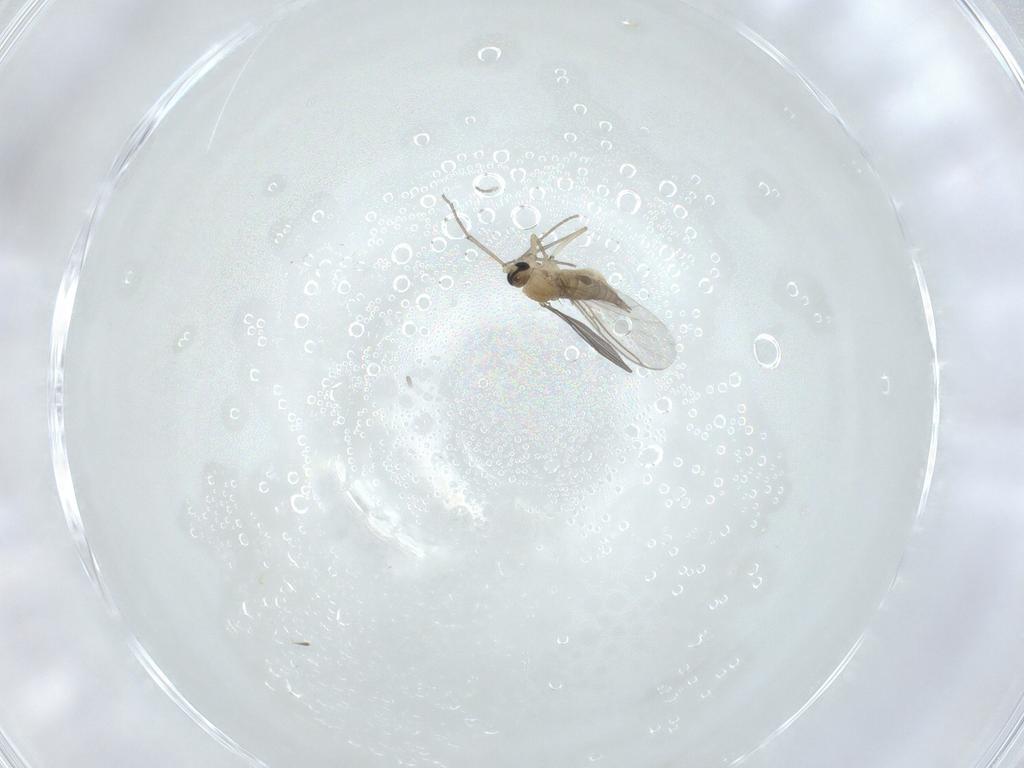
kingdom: Animalia
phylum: Arthropoda
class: Insecta
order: Diptera
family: Sciaridae
